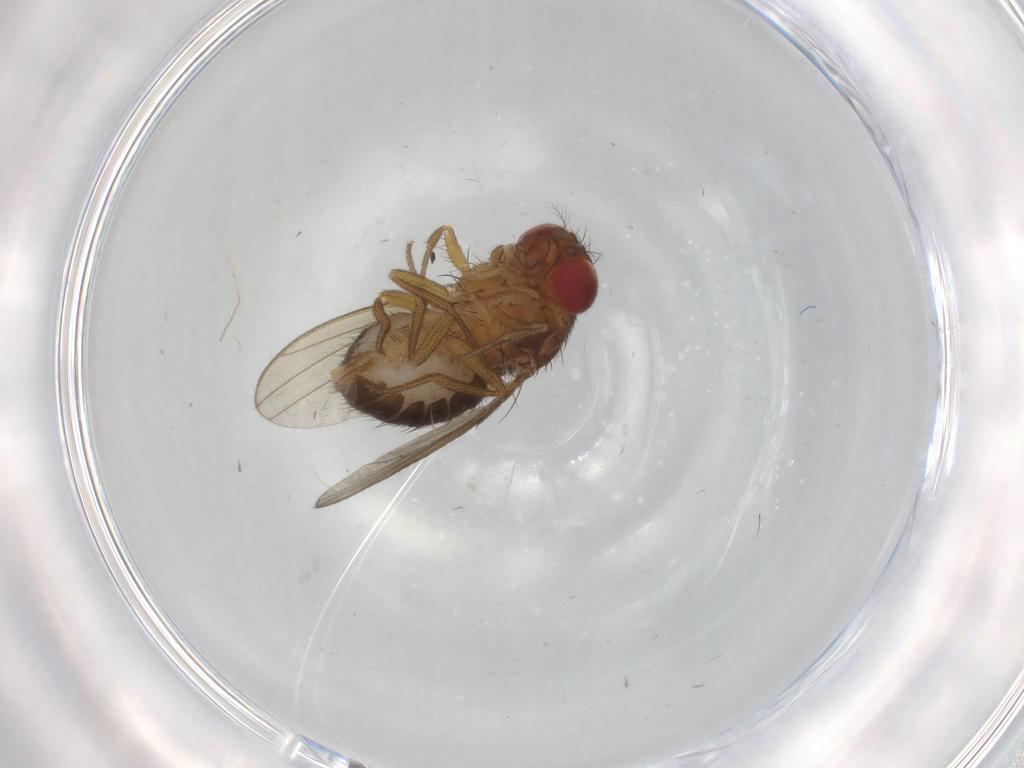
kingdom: Animalia
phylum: Arthropoda
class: Insecta
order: Diptera
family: Drosophilidae
